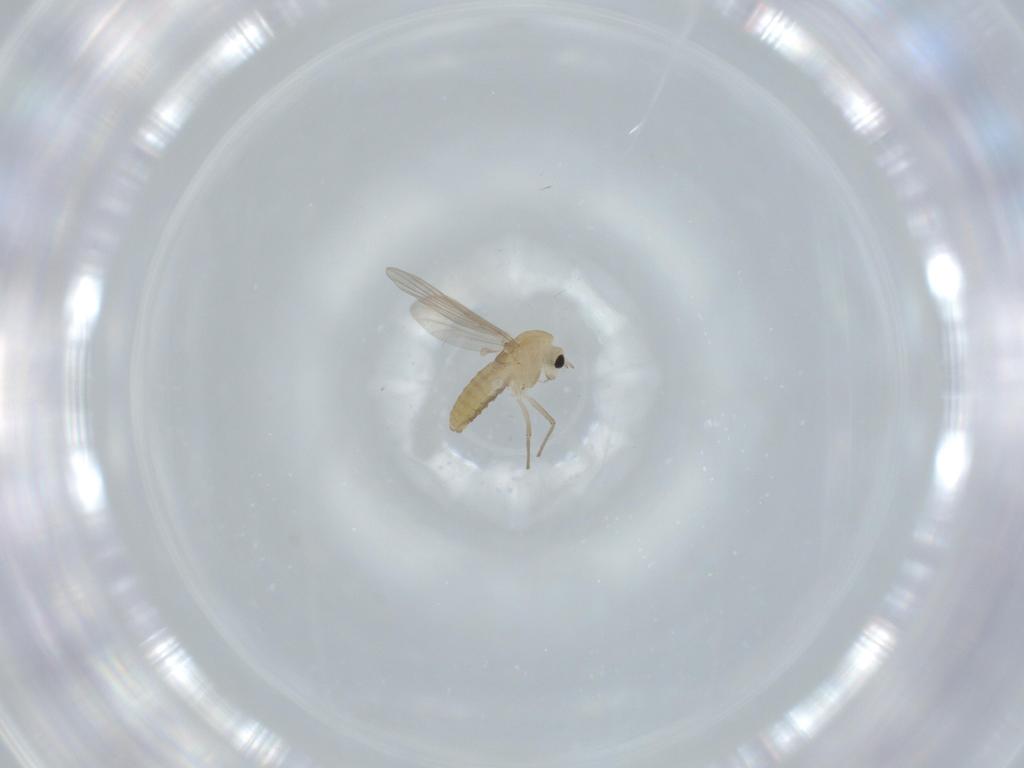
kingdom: Animalia
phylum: Arthropoda
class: Insecta
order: Diptera
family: Chironomidae
